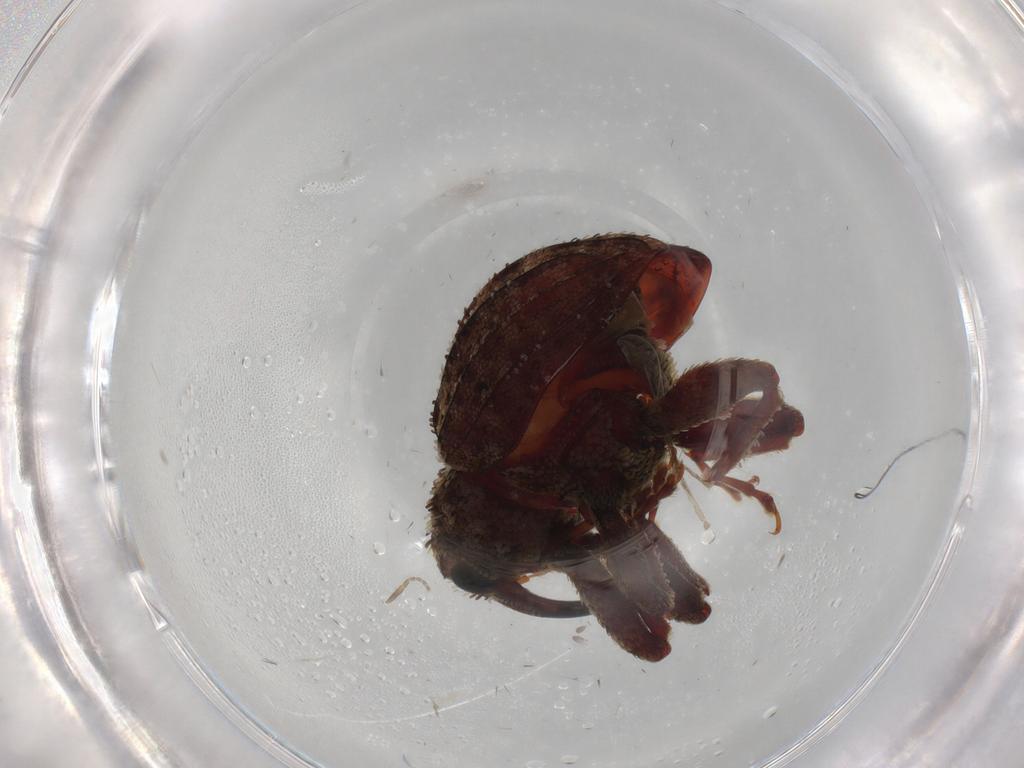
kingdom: Animalia
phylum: Arthropoda
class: Insecta
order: Coleoptera
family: Curculionidae
